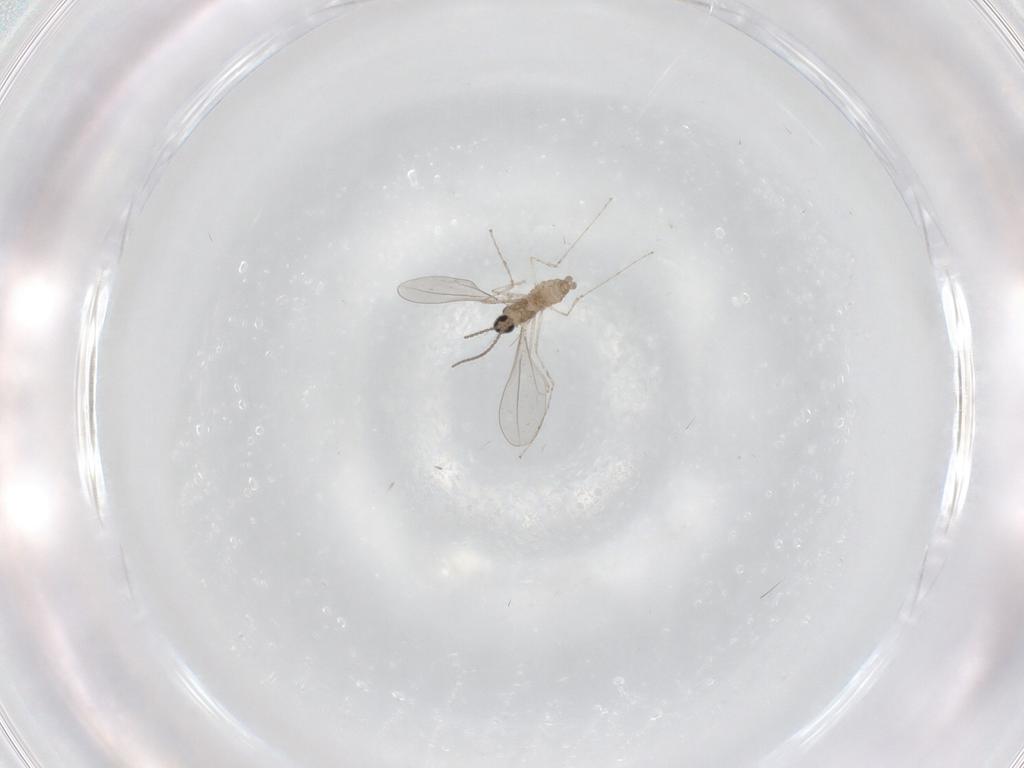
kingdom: Animalia
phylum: Arthropoda
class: Insecta
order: Diptera
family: Cecidomyiidae
